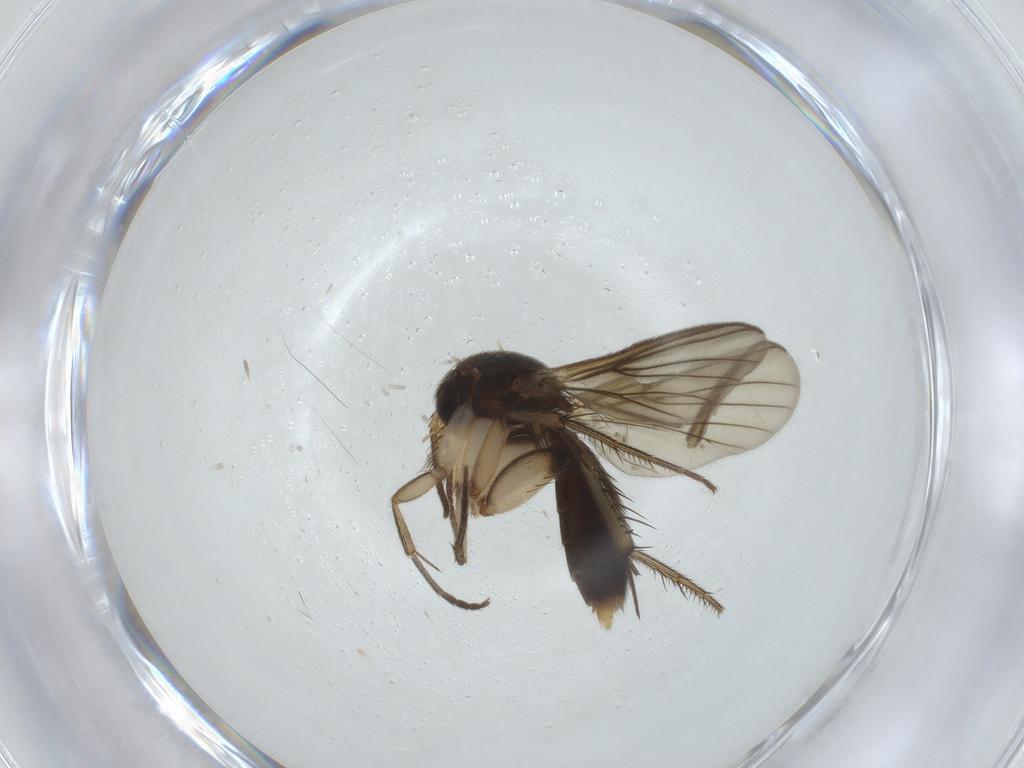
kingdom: Animalia
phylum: Arthropoda
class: Insecta
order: Diptera
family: Mycetophilidae
